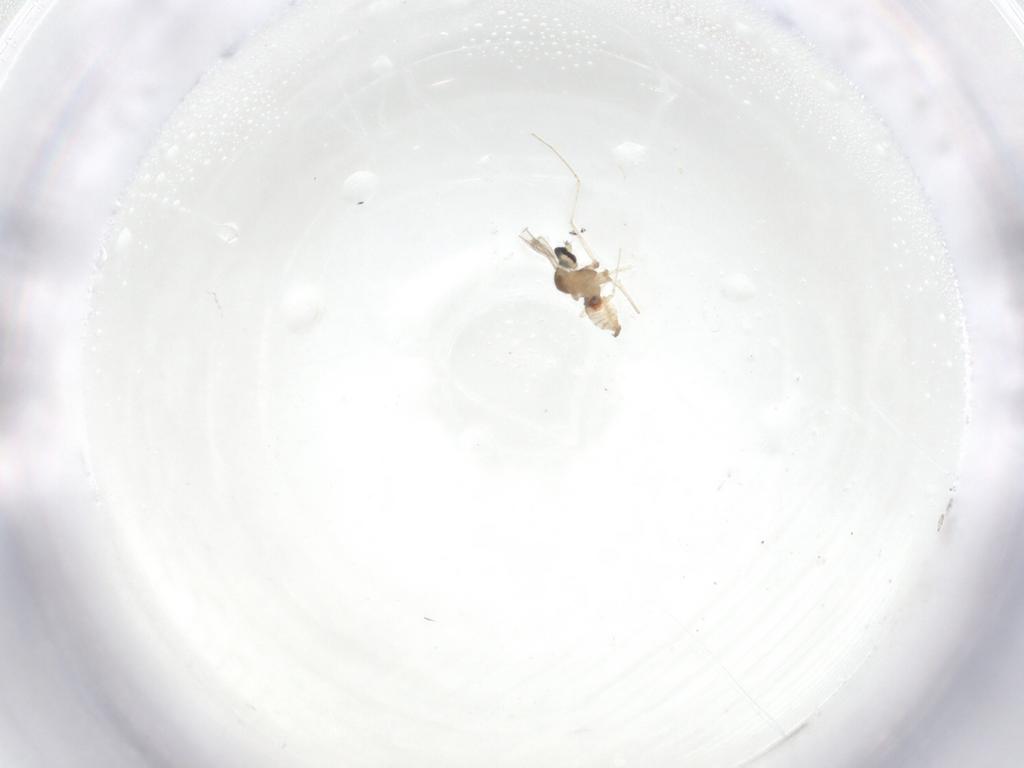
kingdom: Animalia
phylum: Arthropoda
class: Insecta
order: Diptera
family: Cecidomyiidae
